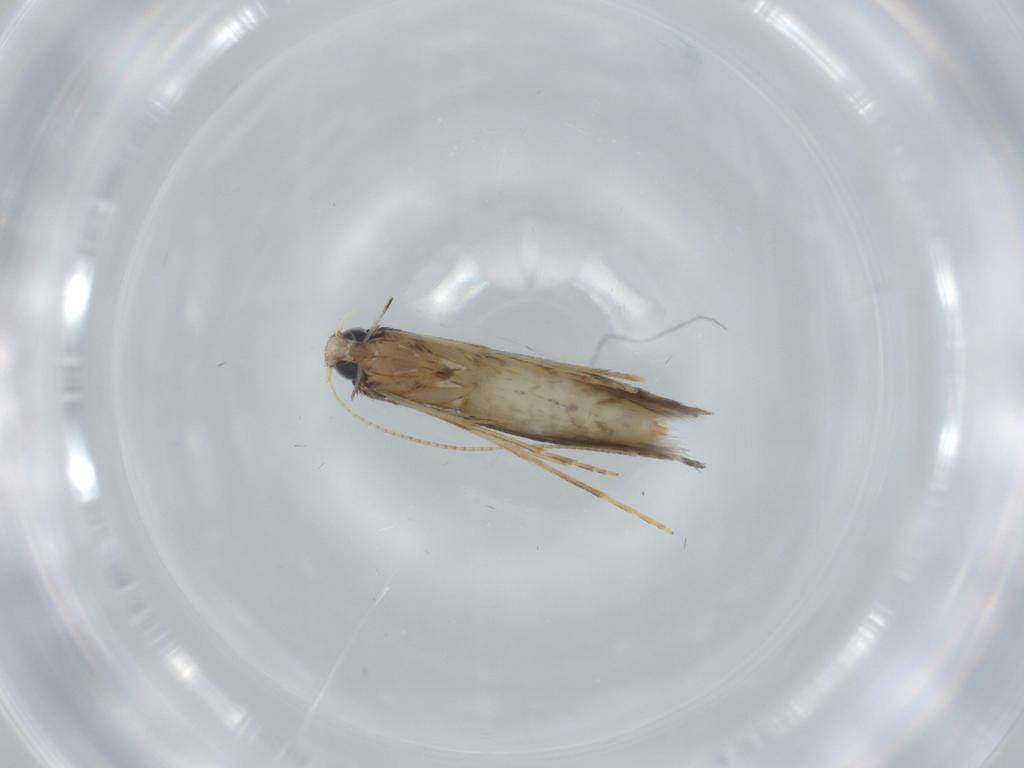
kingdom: Animalia
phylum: Arthropoda
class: Insecta
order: Lepidoptera
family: Gracillariidae
